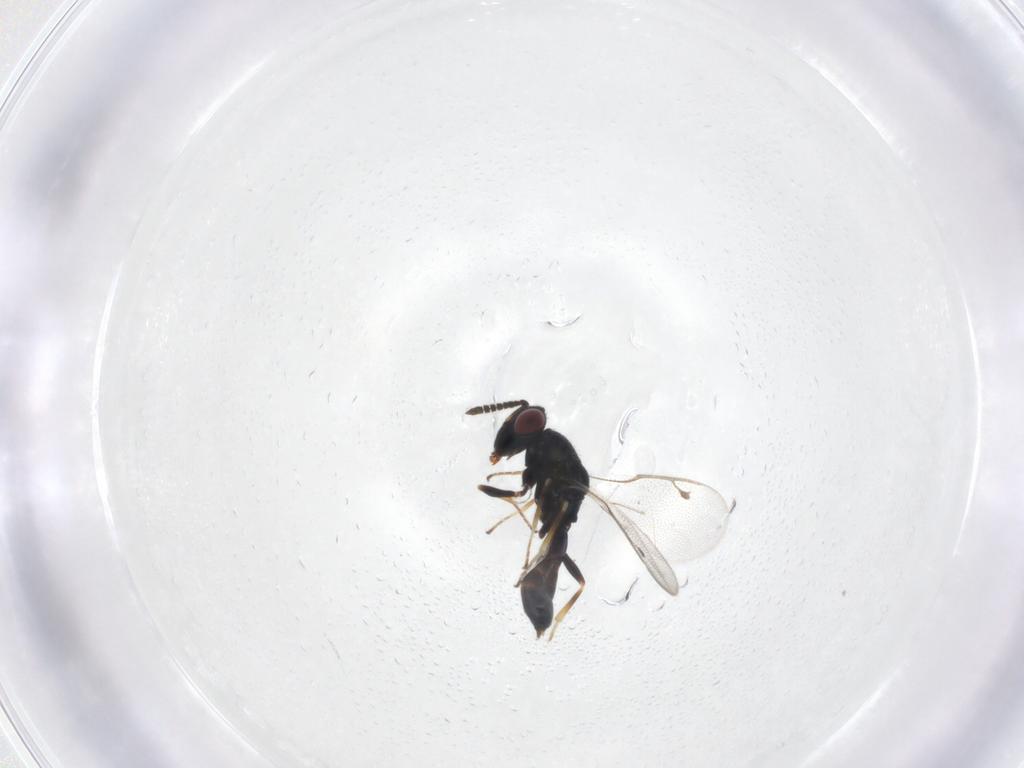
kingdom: Animalia
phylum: Arthropoda
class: Insecta
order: Hymenoptera
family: Pteromalidae
